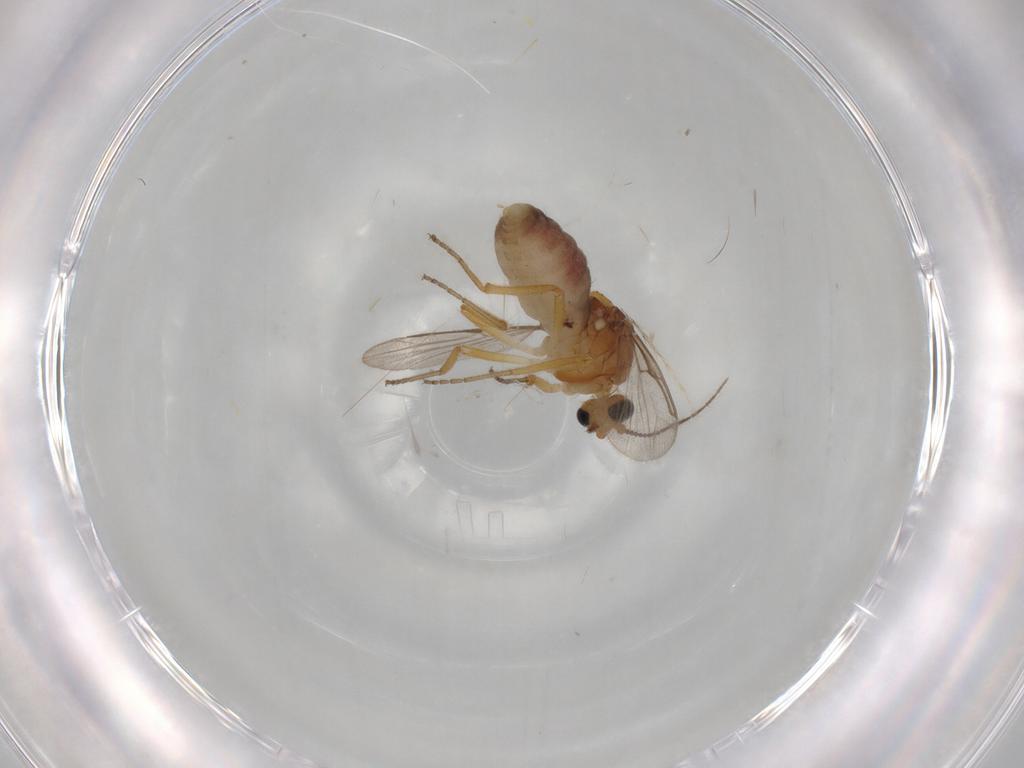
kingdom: Animalia
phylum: Arthropoda
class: Insecta
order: Diptera
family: Ceratopogonidae
